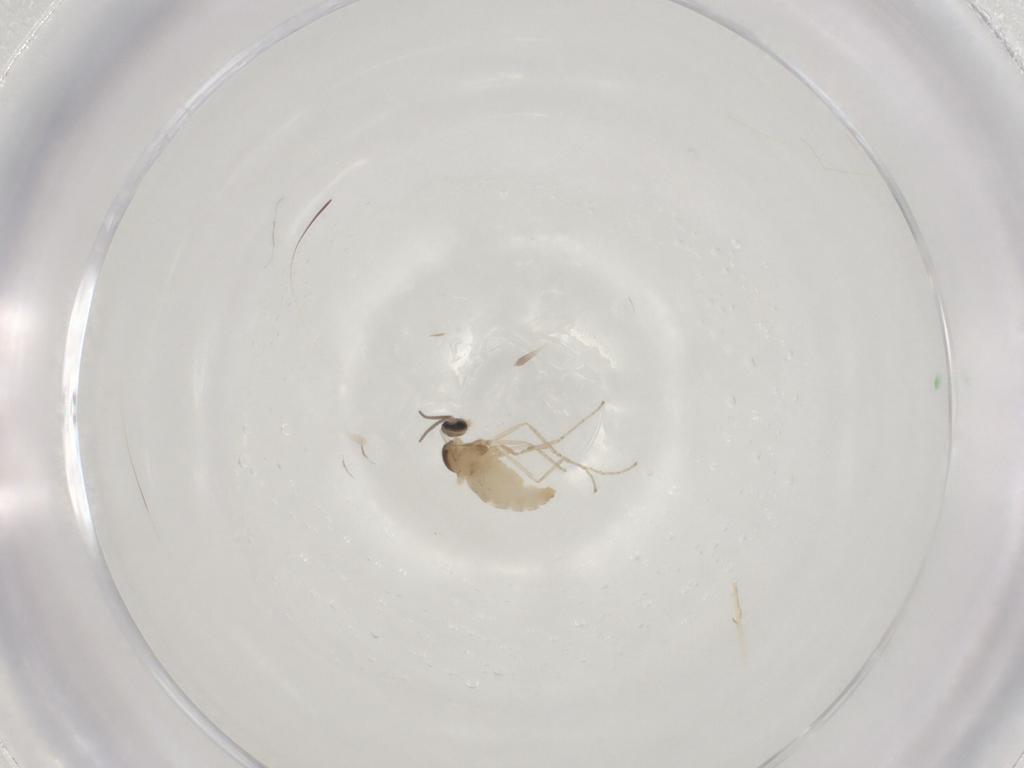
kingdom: Animalia
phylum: Arthropoda
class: Insecta
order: Diptera
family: Cecidomyiidae
